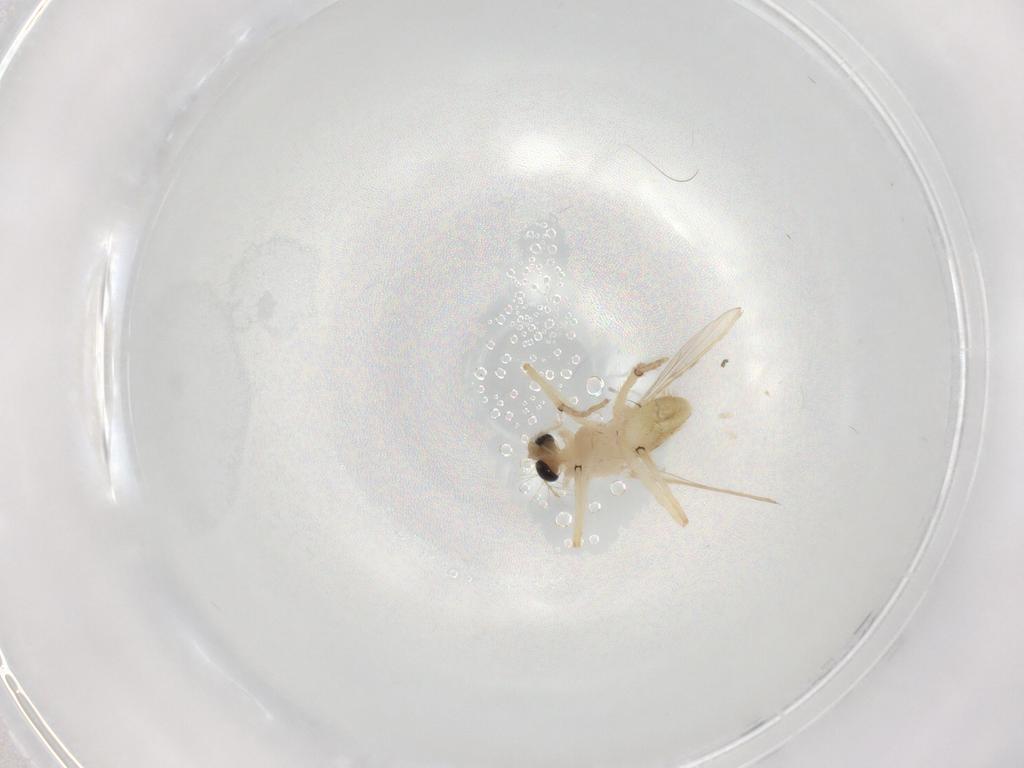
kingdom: Animalia
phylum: Arthropoda
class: Insecta
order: Diptera
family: Chironomidae
